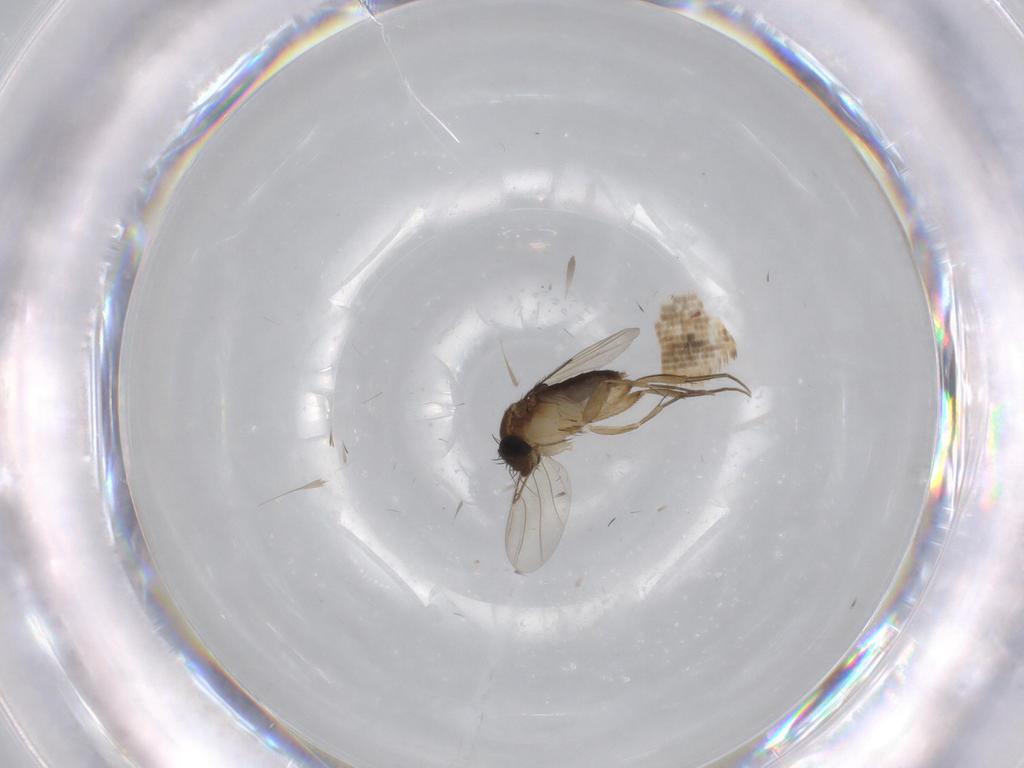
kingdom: Animalia
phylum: Arthropoda
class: Insecta
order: Diptera
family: Phoridae
